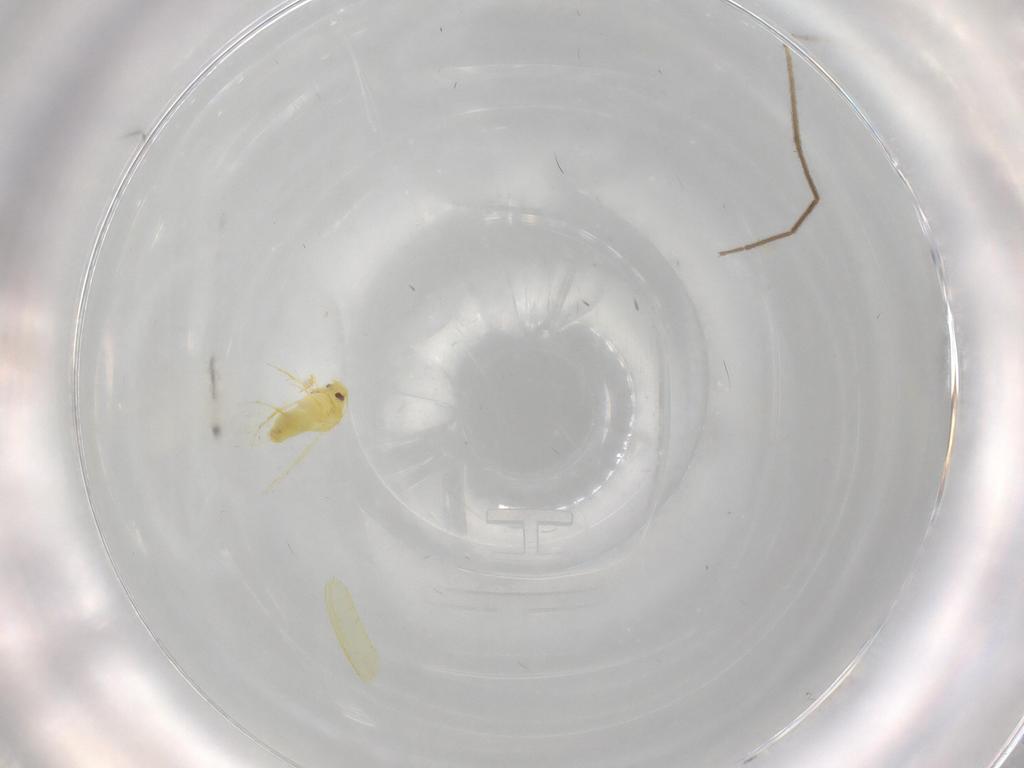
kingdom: Animalia
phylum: Arthropoda
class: Insecta
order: Hemiptera
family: Aleyrodidae
